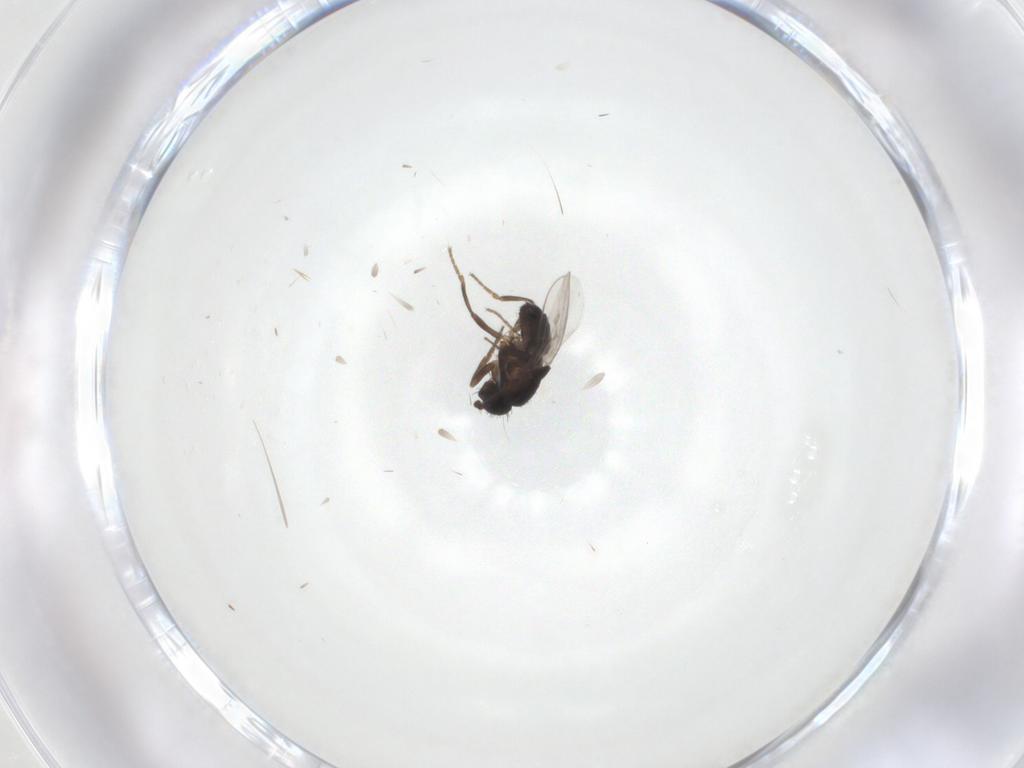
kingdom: Animalia
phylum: Arthropoda
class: Insecta
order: Diptera
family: Sphaeroceridae
